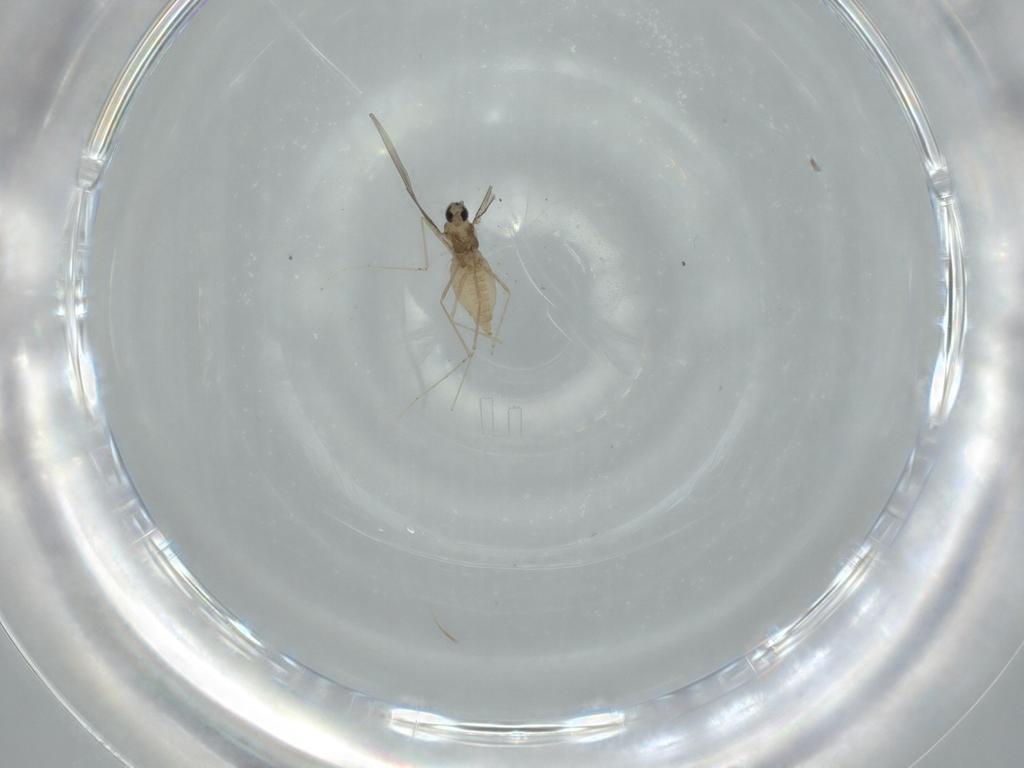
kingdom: Animalia
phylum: Arthropoda
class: Insecta
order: Diptera
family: Cecidomyiidae
